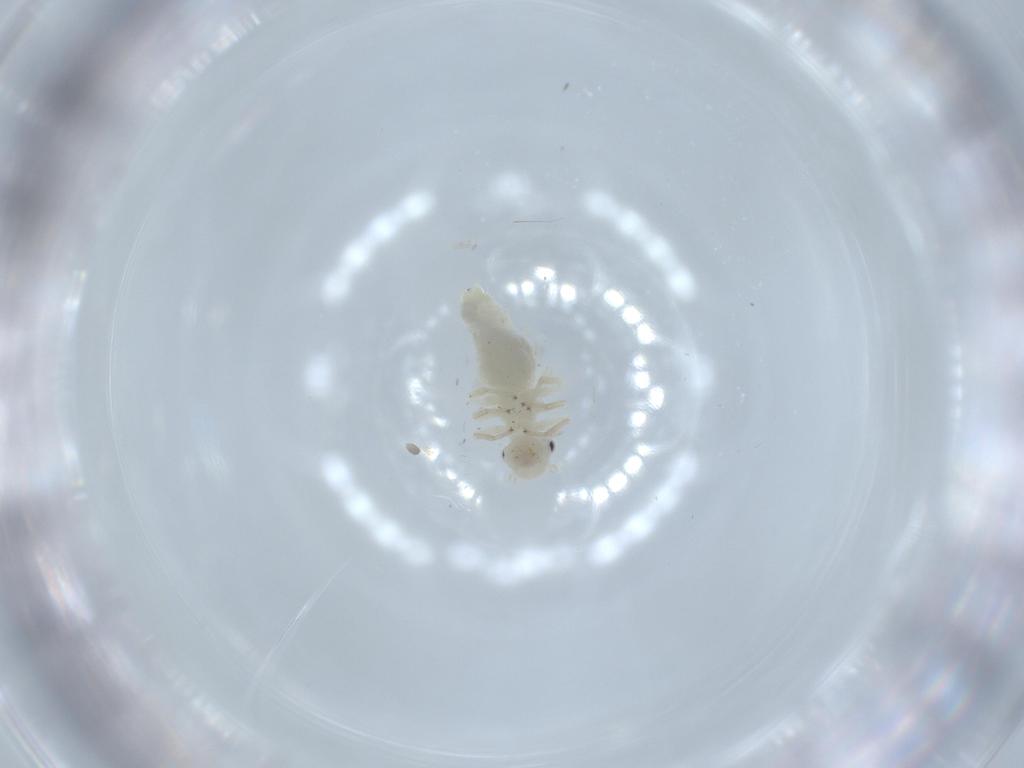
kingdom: Animalia
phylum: Arthropoda
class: Insecta
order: Psocodea
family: Caeciliusidae
